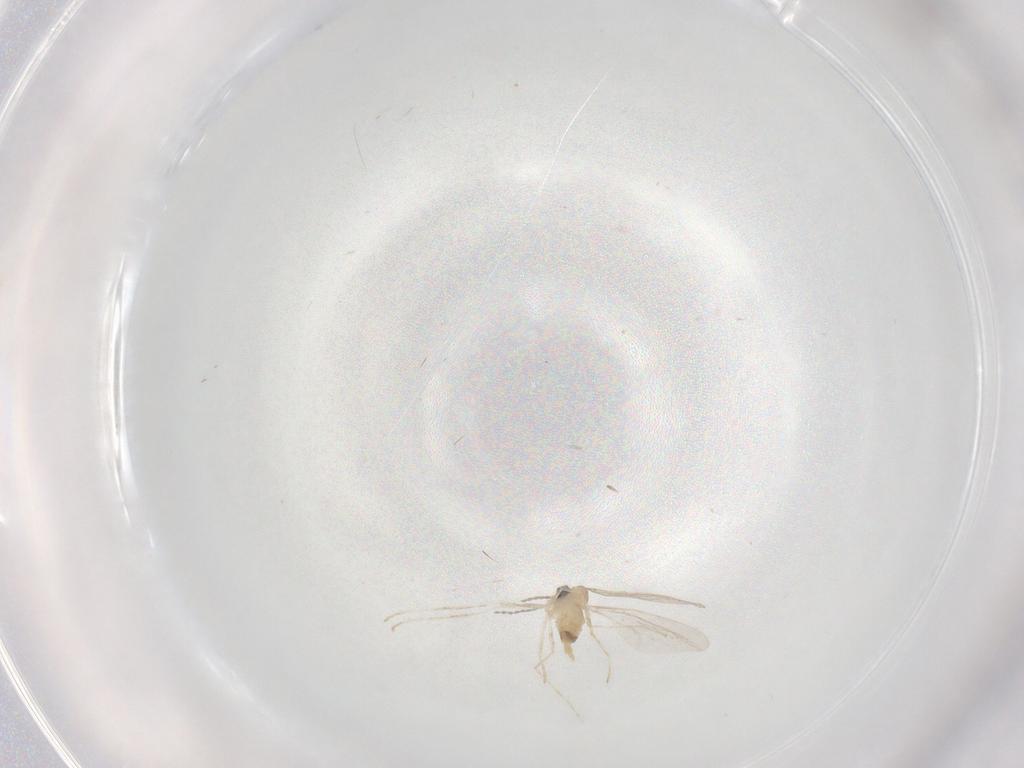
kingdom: Animalia
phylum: Arthropoda
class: Insecta
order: Diptera
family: Cecidomyiidae
